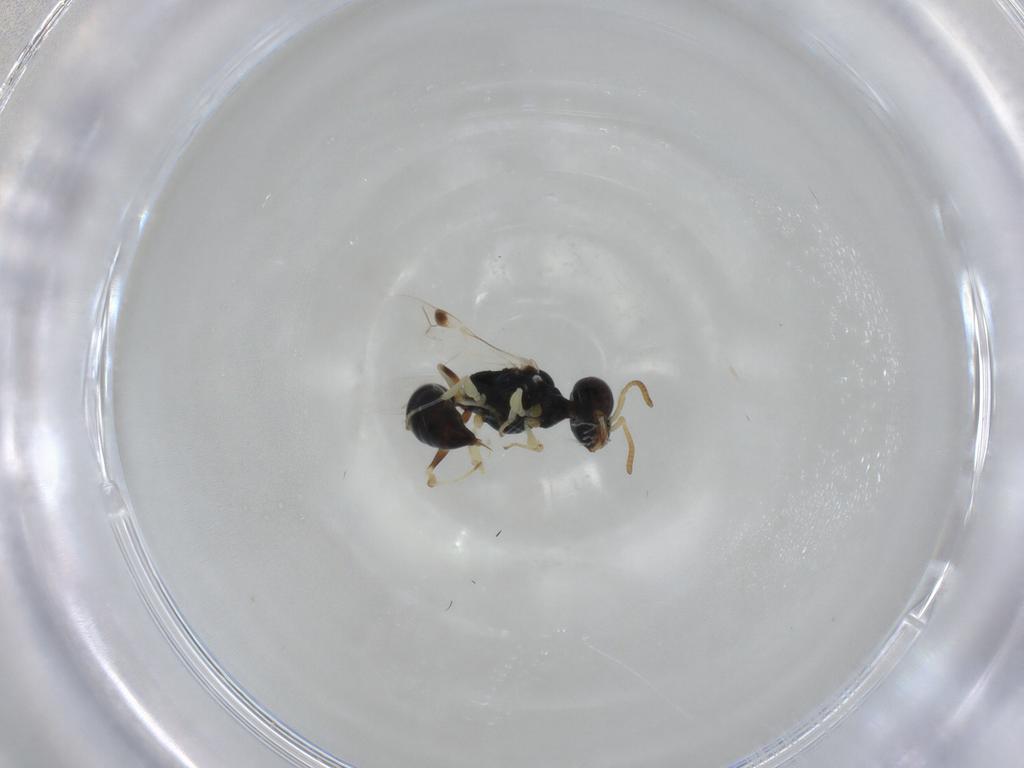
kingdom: Animalia
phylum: Arthropoda
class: Insecta
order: Hymenoptera
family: Pemphredonidae
